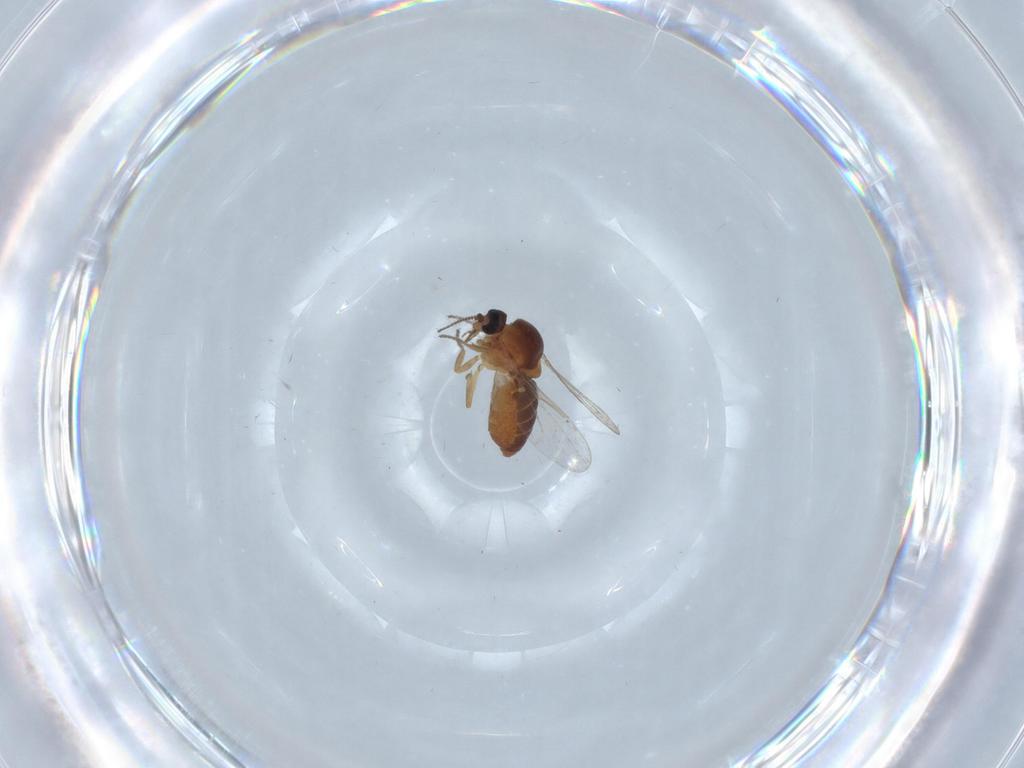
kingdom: Animalia
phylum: Arthropoda
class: Insecta
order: Diptera
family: Ceratopogonidae
